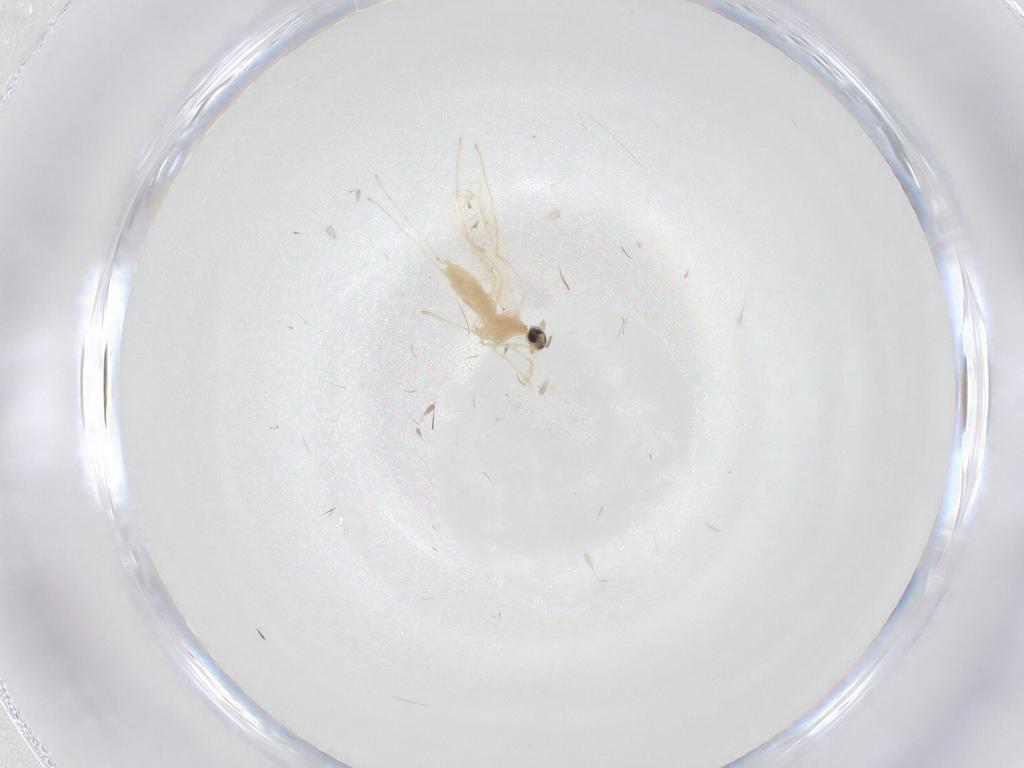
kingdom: Animalia
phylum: Arthropoda
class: Insecta
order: Diptera
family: Cecidomyiidae
